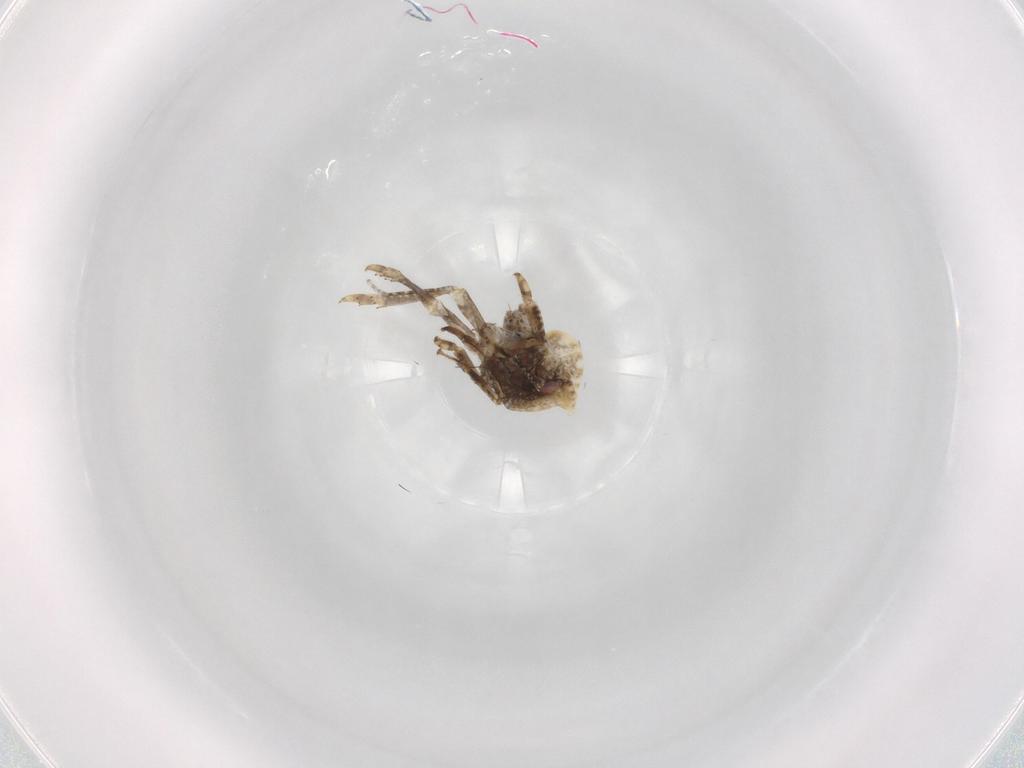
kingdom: Animalia
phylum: Arthropoda
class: Insecta
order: Hemiptera
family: Acanaloniidae
